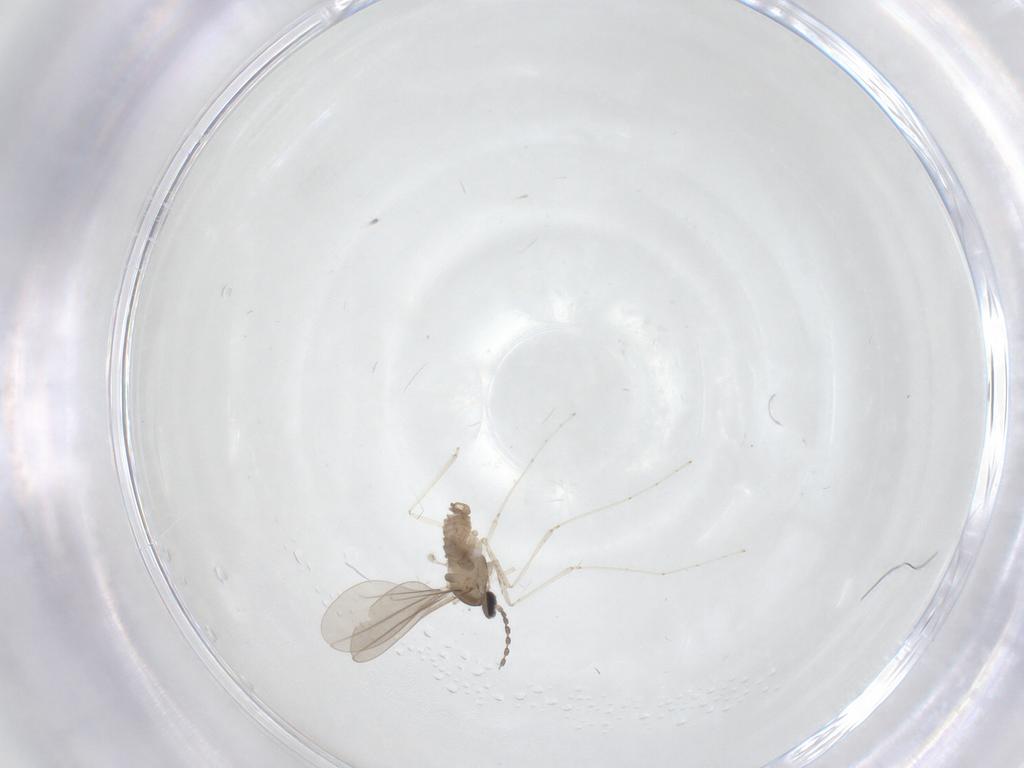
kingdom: Animalia
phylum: Arthropoda
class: Insecta
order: Diptera
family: Cecidomyiidae
